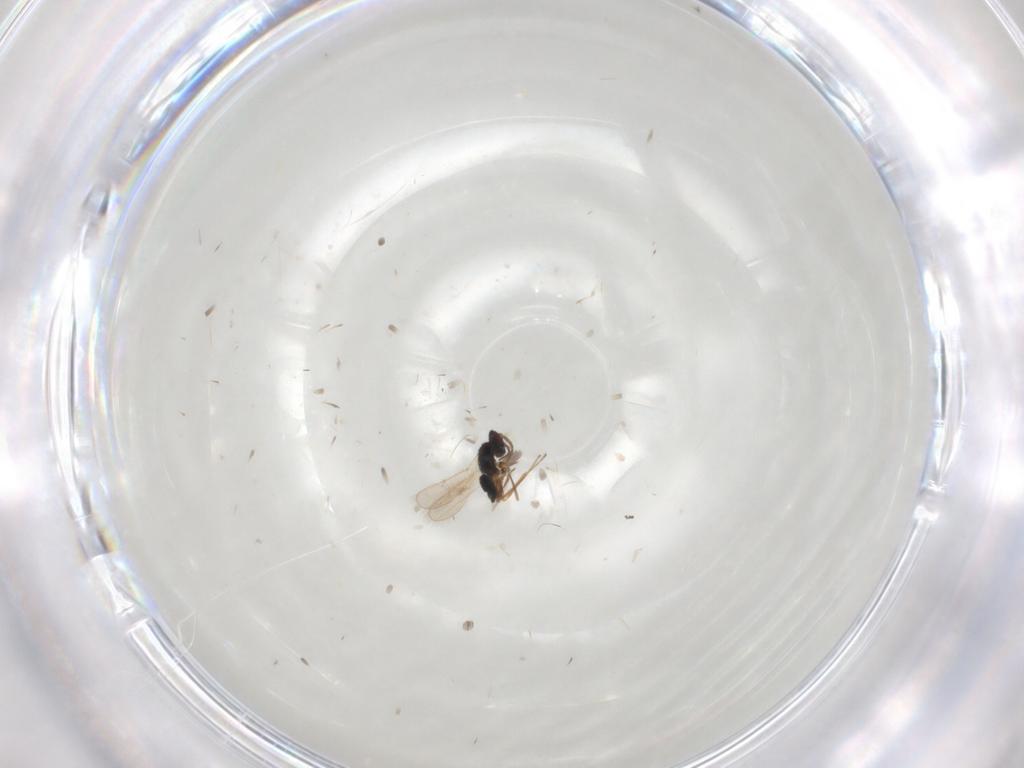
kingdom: Animalia
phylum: Arthropoda
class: Insecta
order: Hymenoptera
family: Tetracampidae
